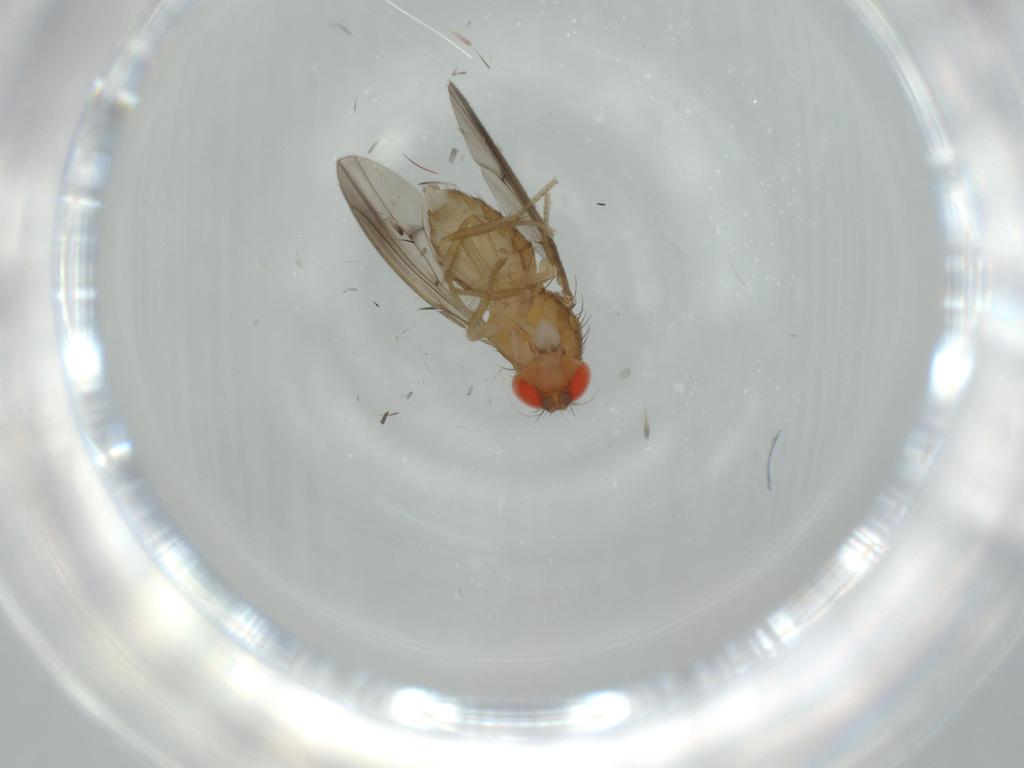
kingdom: Animalia
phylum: Arthropoda
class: Insecta
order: Diptera
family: Drosophilidae
